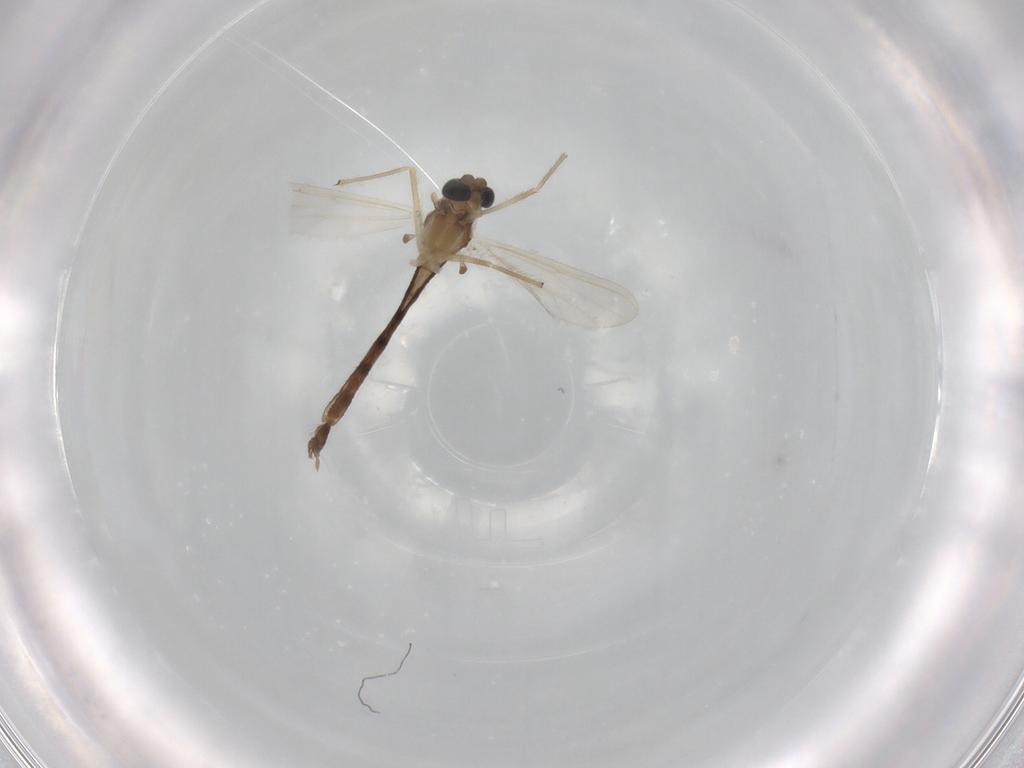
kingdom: Animalia
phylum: Arthropoda
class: Insecta
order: Diptera
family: Chironomidae
